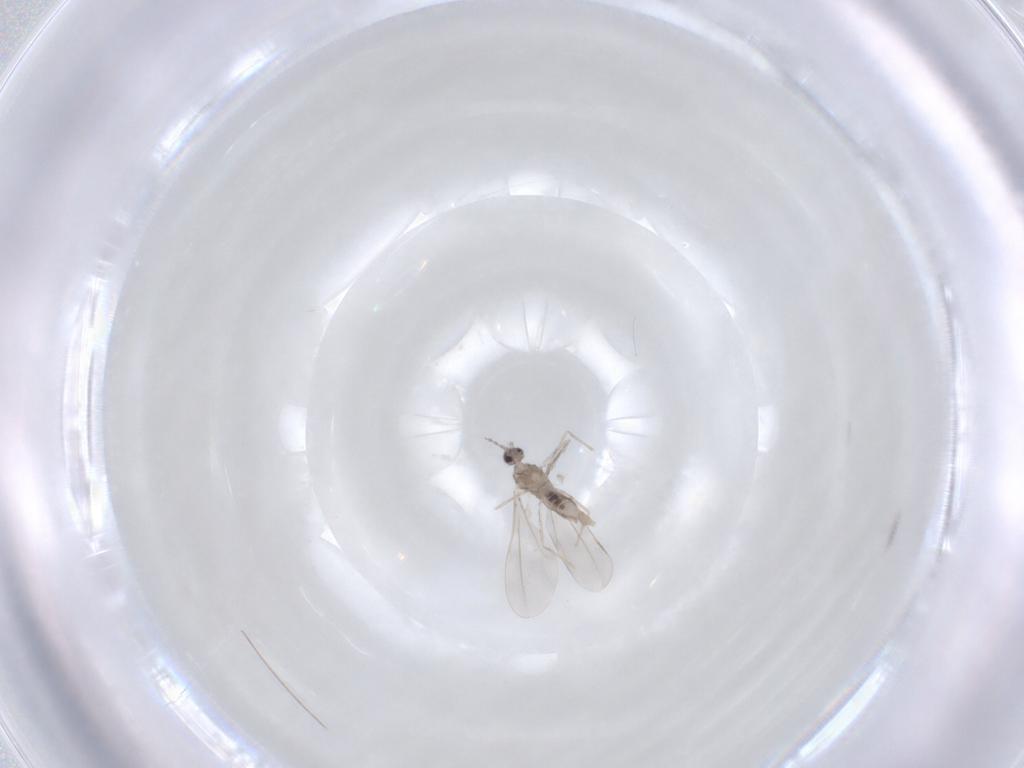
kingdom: Animalia
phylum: Arthropoda
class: Insecta
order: Diptera
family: Cecidomyiidae
